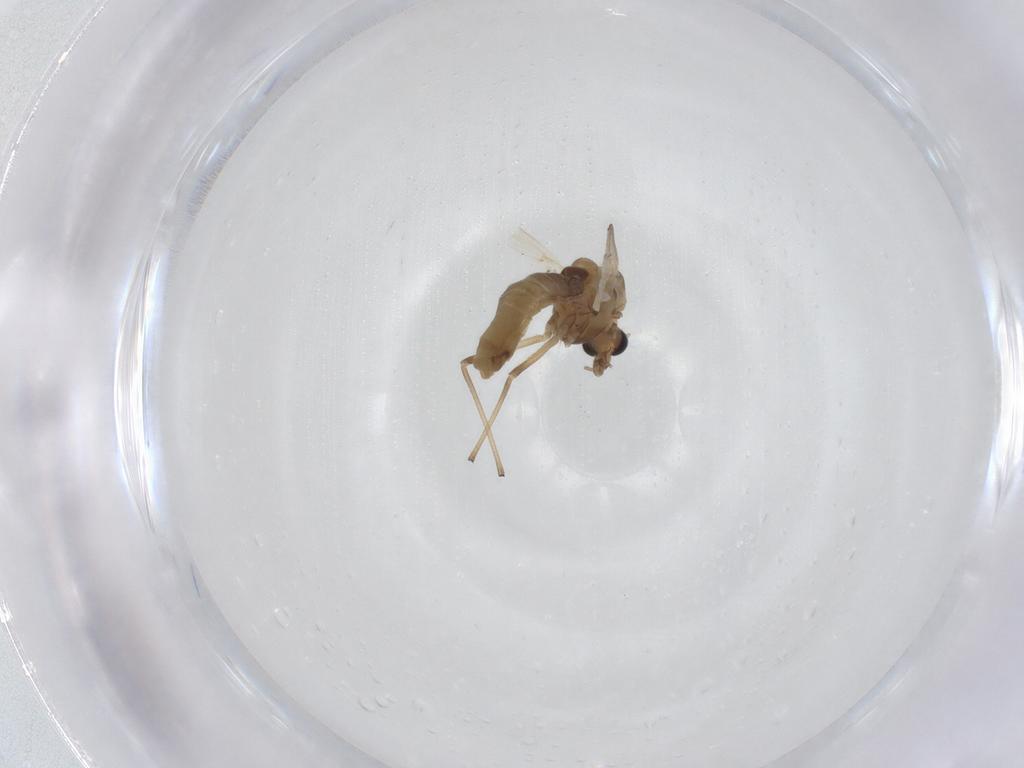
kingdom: Animalia
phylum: Arthropoda
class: Insecta
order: Diptera
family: Chironomidae
